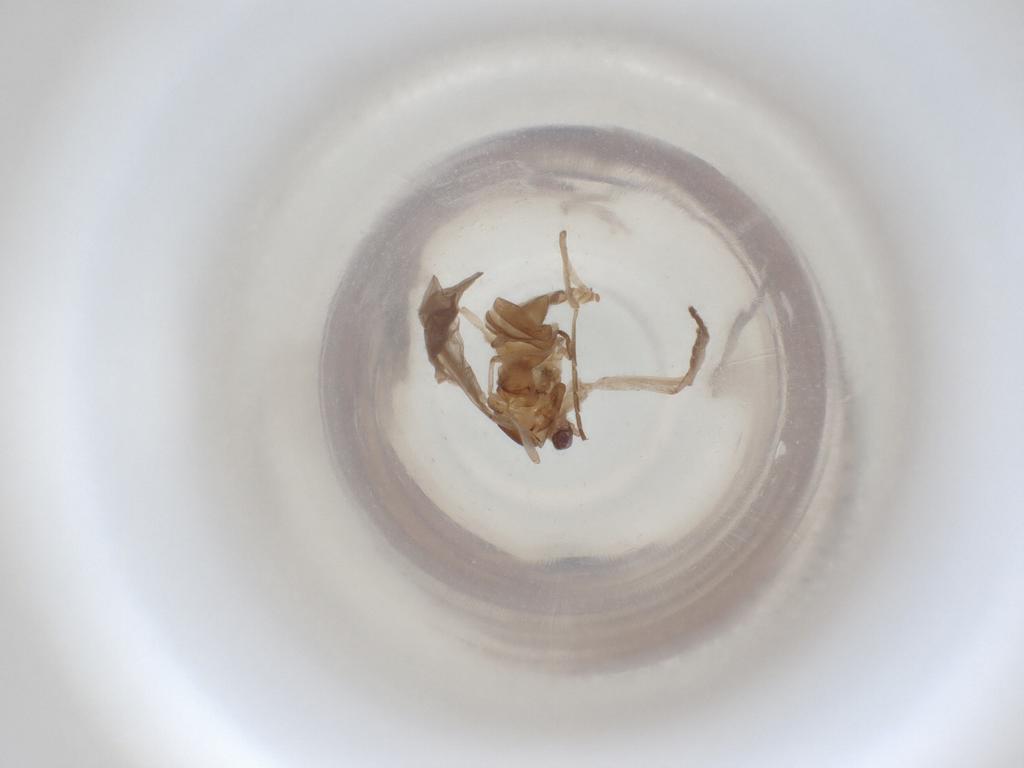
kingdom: Animalia
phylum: Arthropoda
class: Insecta
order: Diptera
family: Cecidomyiidae
